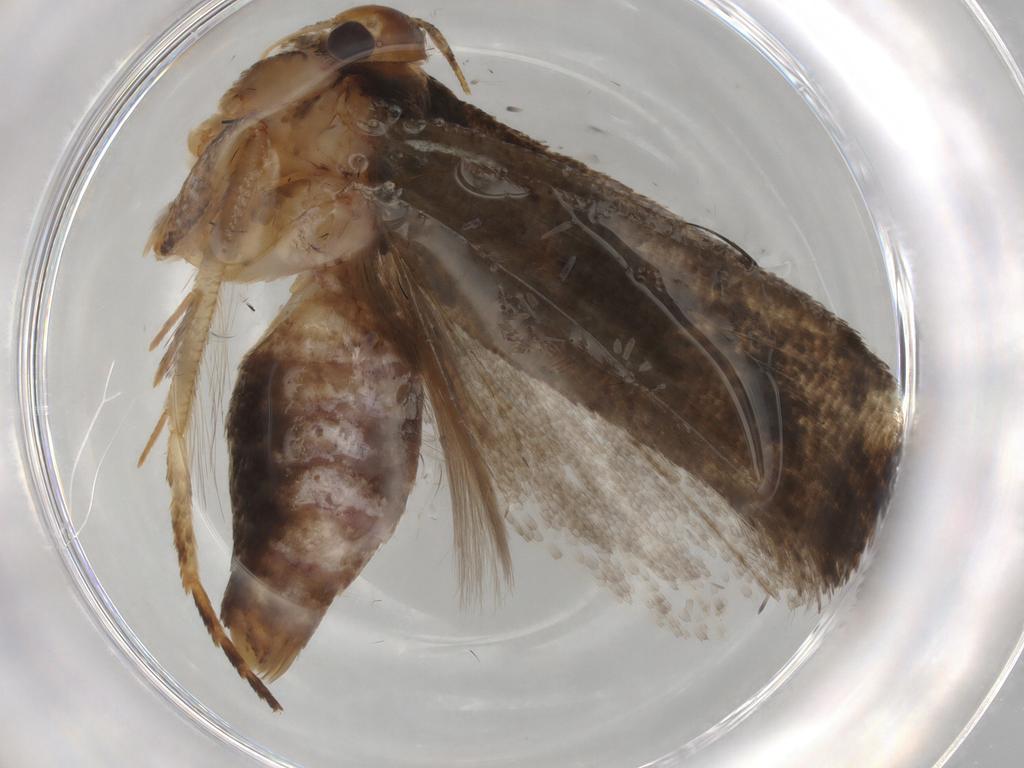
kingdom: Animalia
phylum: Arthropoda
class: Insecta
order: Lepidoptera
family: Gelechiidae
